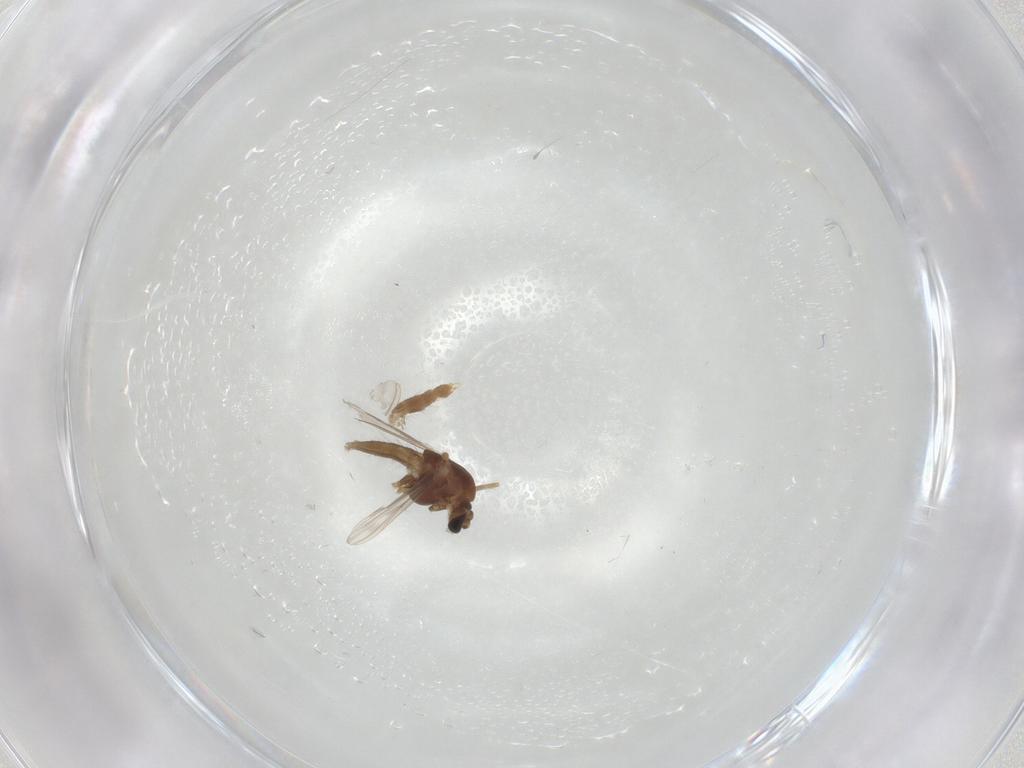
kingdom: Animalia
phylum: Arthropoda
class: Insecta
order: Diptera
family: Chironomidae
